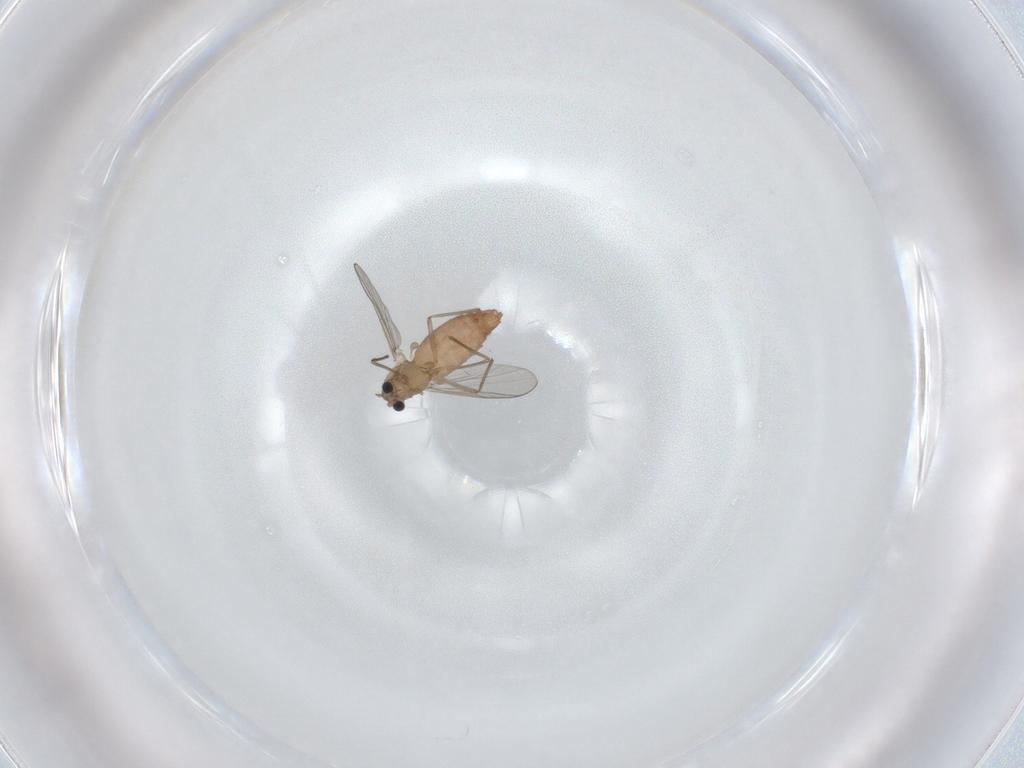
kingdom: Animalia
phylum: Arthropoda
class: Insecta
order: Diptera
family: Chironomidae
